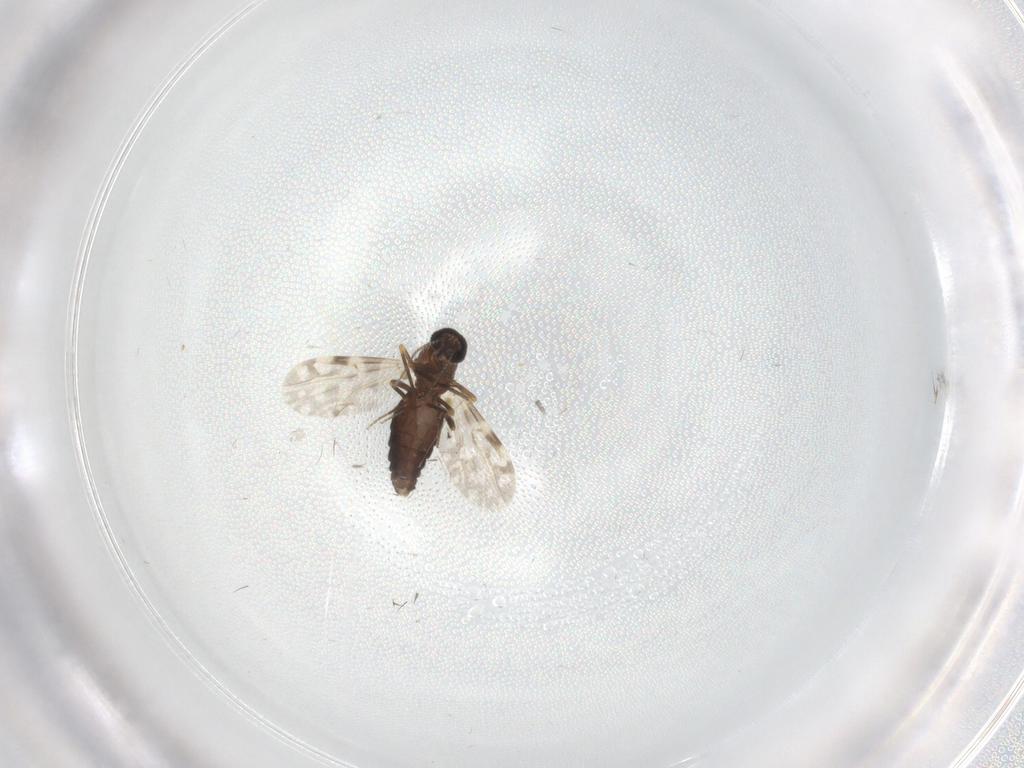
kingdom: Animalia
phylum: Arthropoda
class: Insecta
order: Diptera
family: Ceratopogonidae
